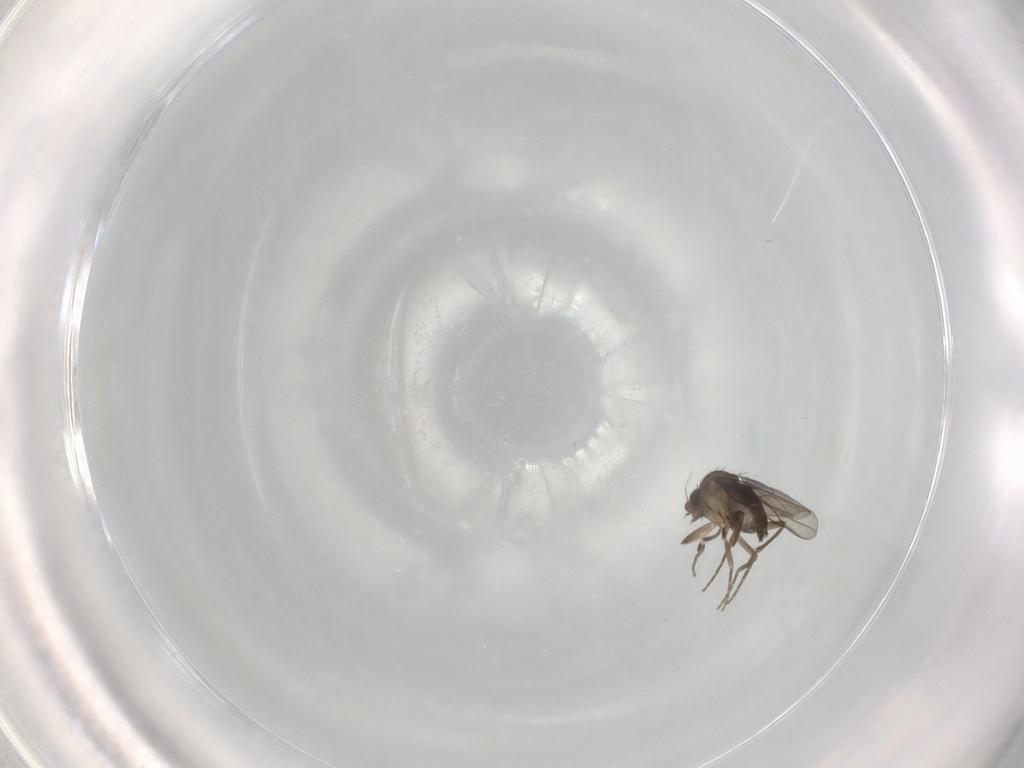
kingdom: Animalia
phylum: Arthropoda
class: Insecta
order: Diptera
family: Phoridae
